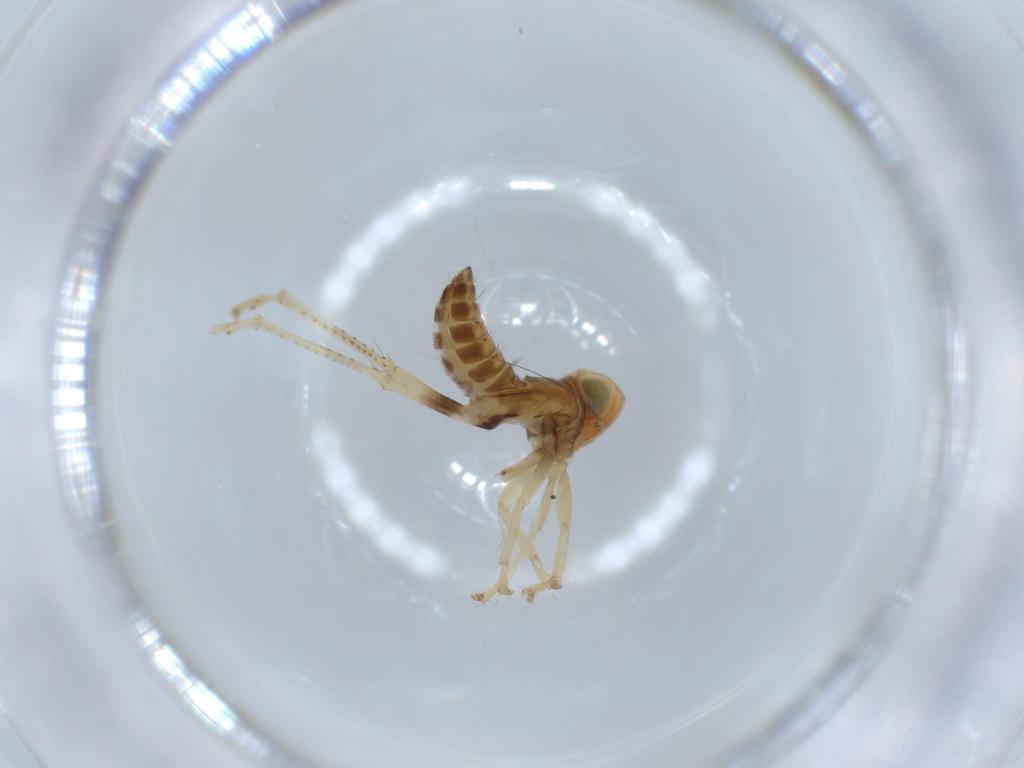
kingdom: Animalia
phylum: Arthropoda
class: Insecta
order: Hemiptera
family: Cicadellidae
